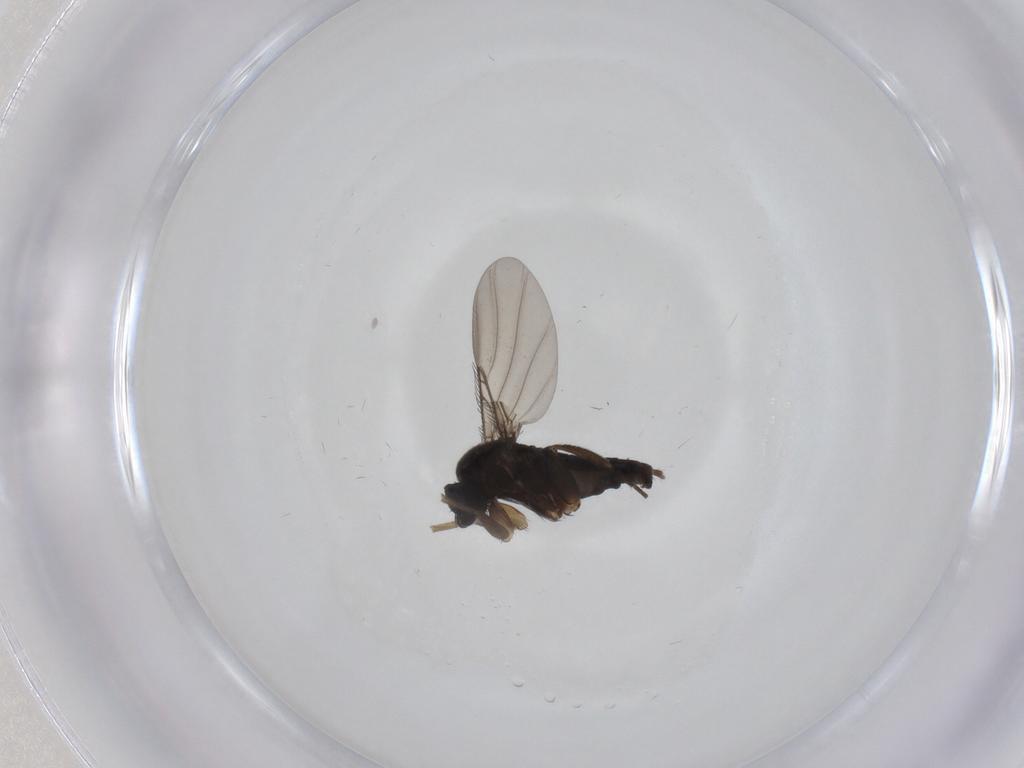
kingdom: Animalia
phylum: Arthropoda
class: Insecta
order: Diptera
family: Phoridae
